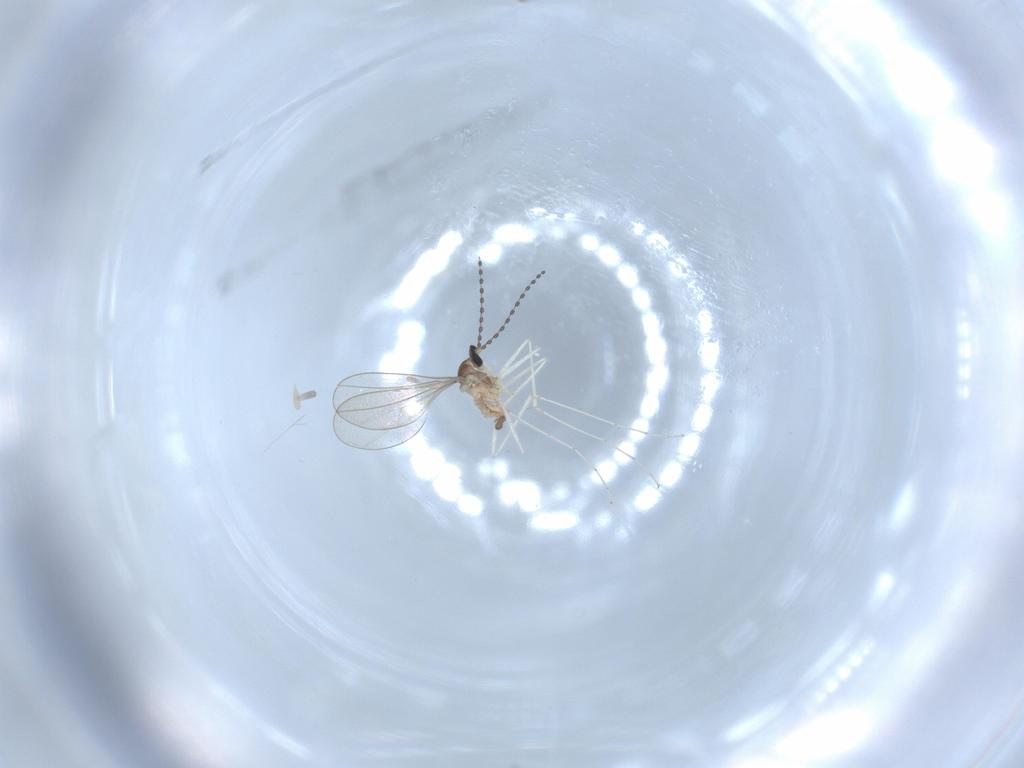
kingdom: Animalia
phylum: Arthropoda
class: Insecta
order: Diptera
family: Cecidomyiidae
